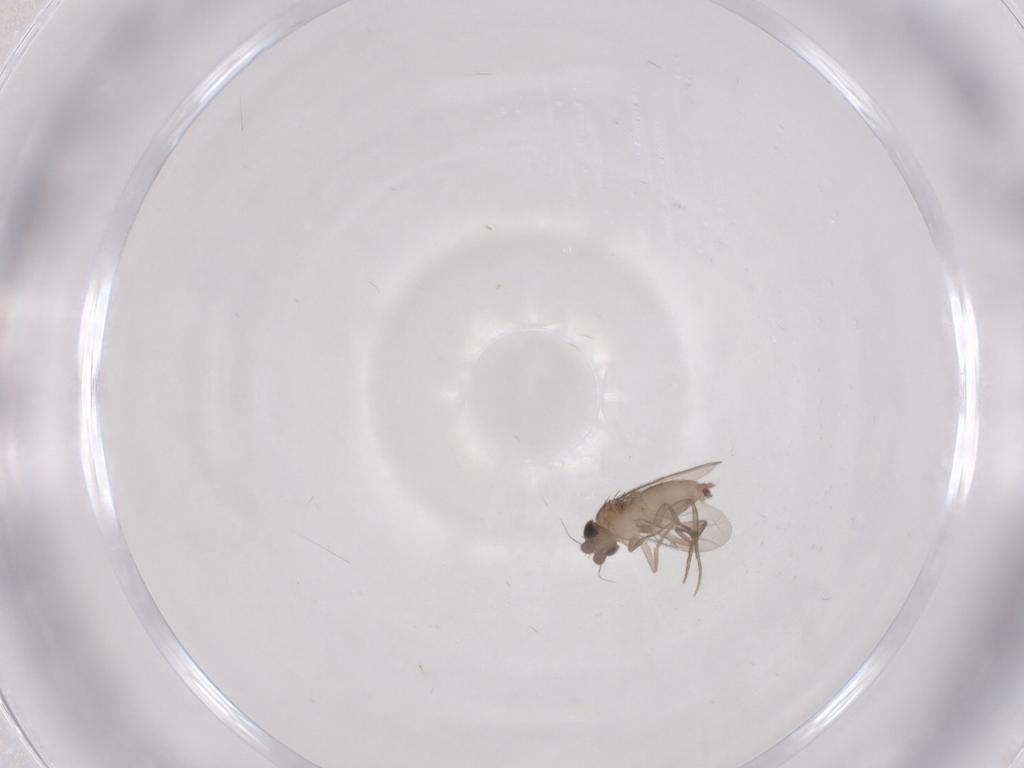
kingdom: Animalia
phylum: Arthropoda
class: Insecta
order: Diptera
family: Phoridae
